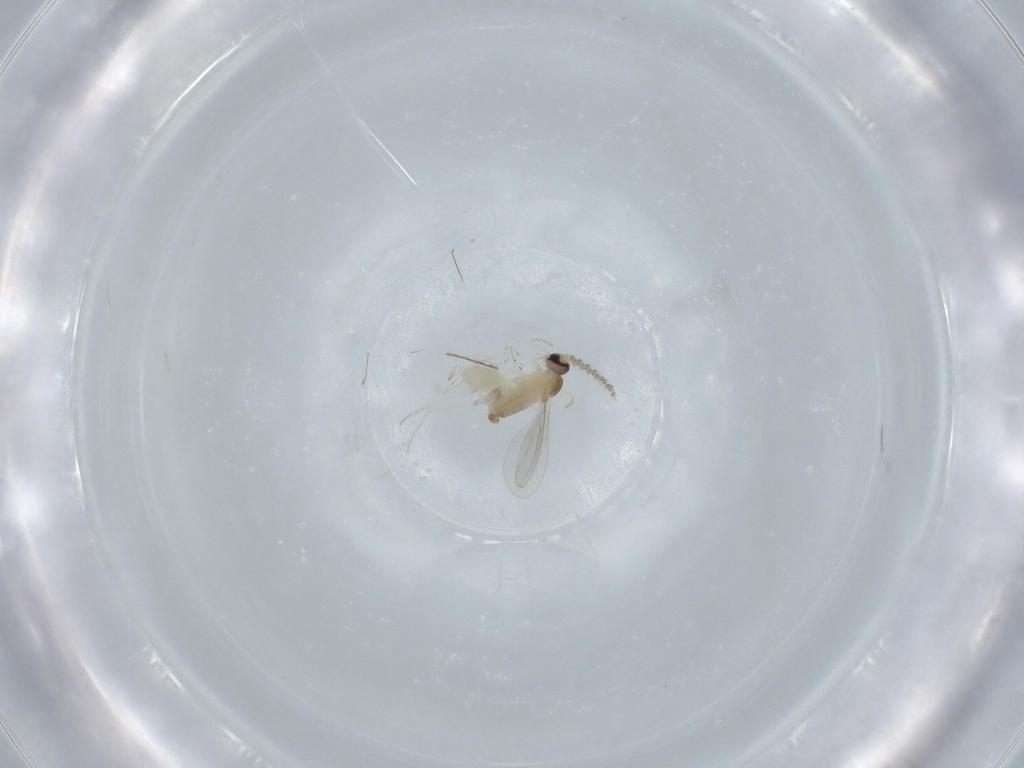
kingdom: Animalia
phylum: Arthropoda
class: Insecta
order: Diptera
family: Cecidomyiidae
